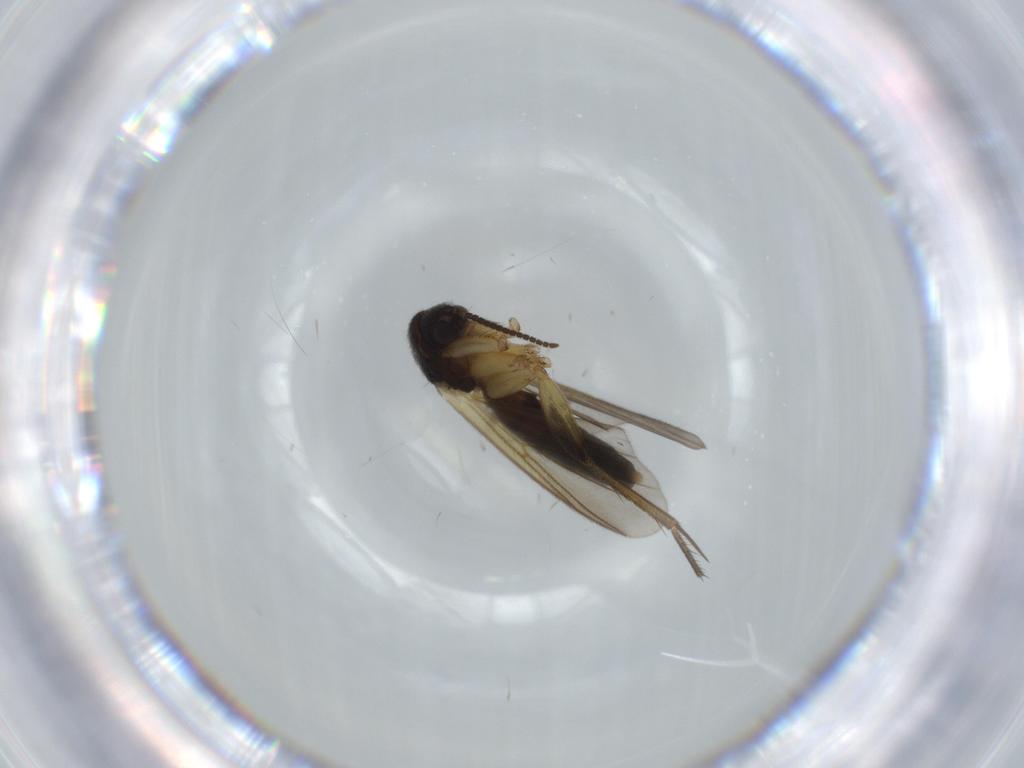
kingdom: Animalia
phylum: Arthropoda
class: Insecta
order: Diptera
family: Mycetophilidae
